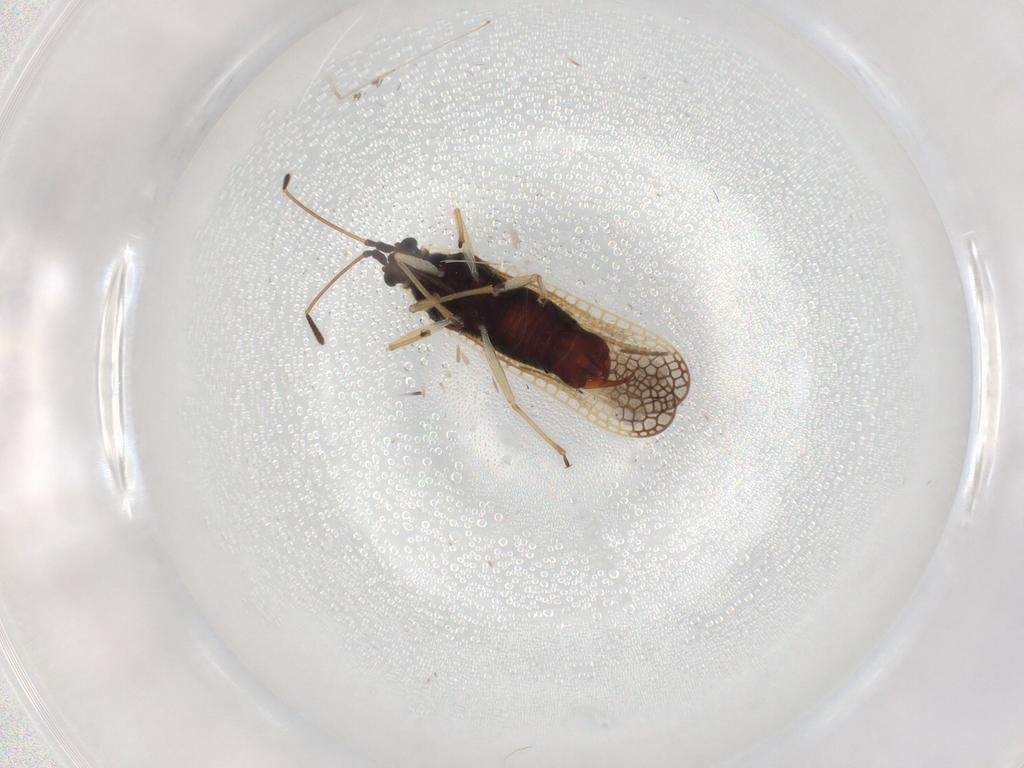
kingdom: Animalia
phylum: Arthropoda
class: Insecta
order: Hemiptera
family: Tingidae
